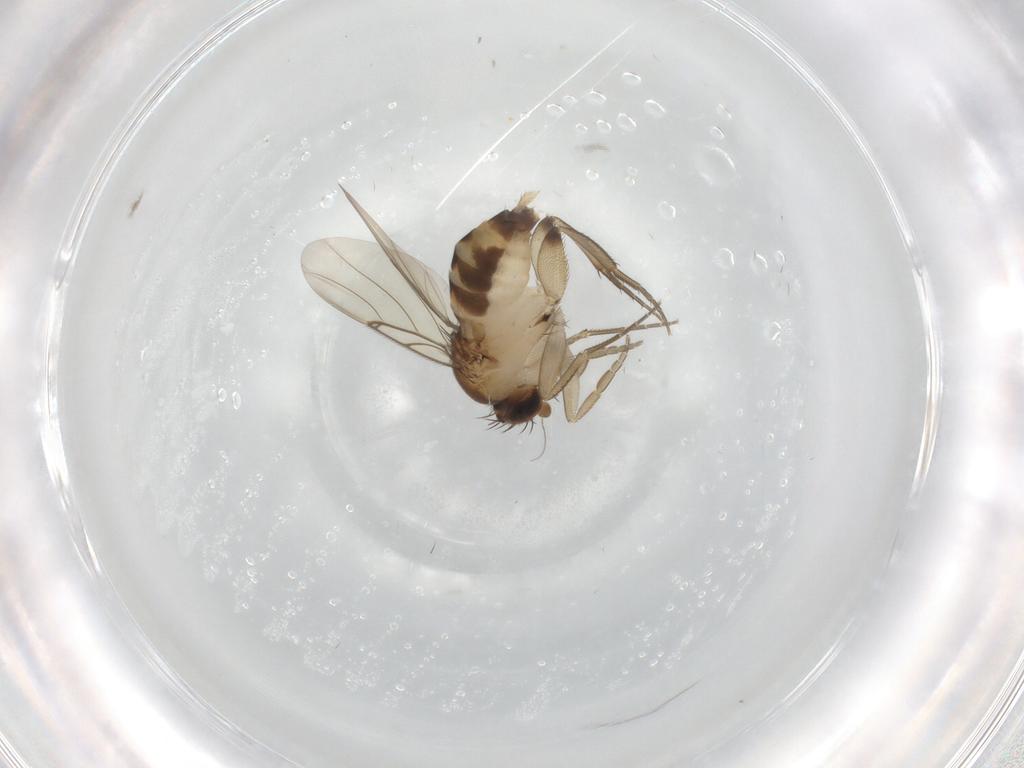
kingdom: Animalia
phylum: Arthropoda
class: Insecta
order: Diptera
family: Phoridae
